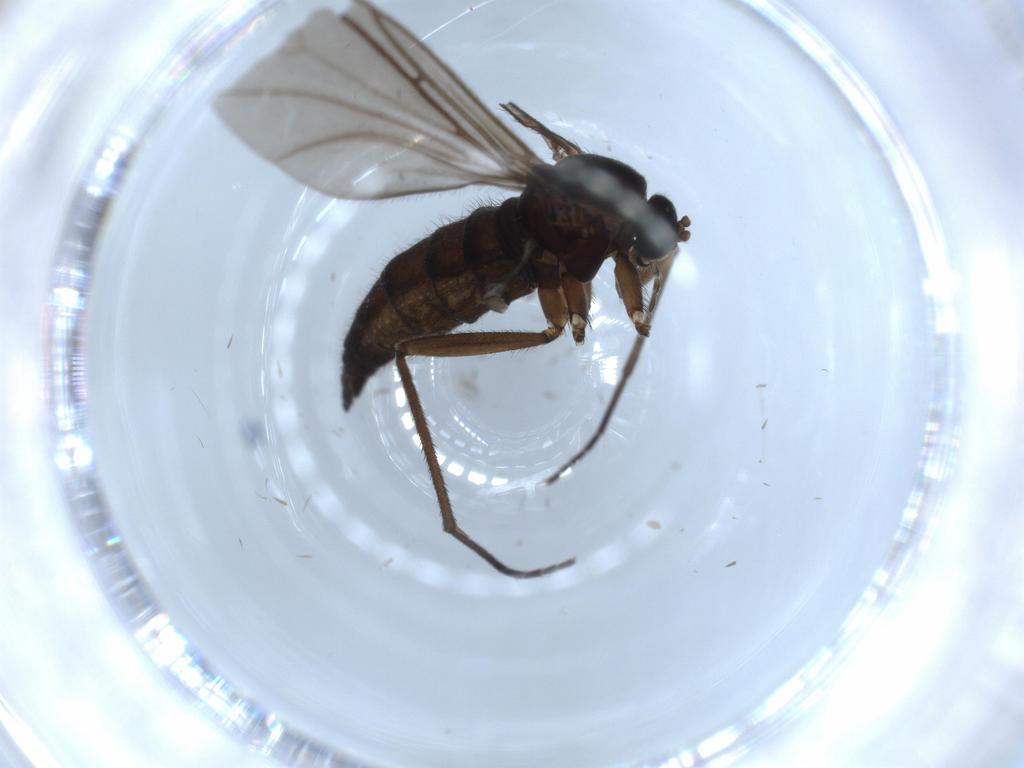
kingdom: Animalia
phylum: Arthropoda
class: Insecta
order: Diptera
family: Sciaridae
